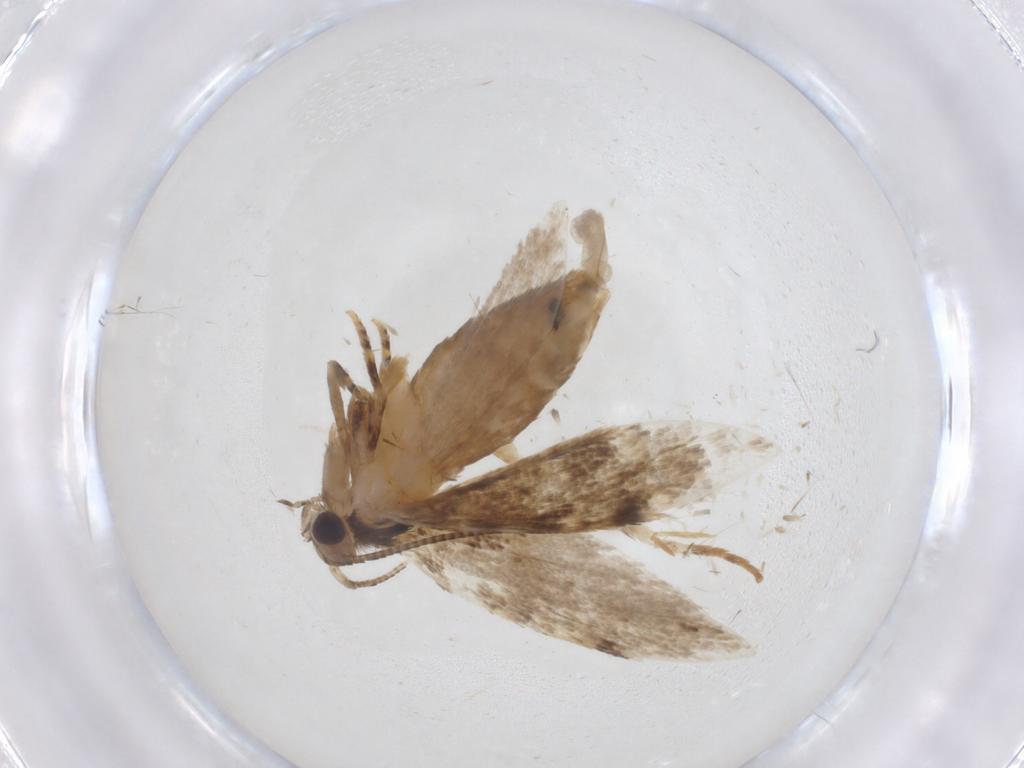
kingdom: Animalia
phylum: Arthropoda
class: Insecta
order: Lepidoptera
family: Tineidae
